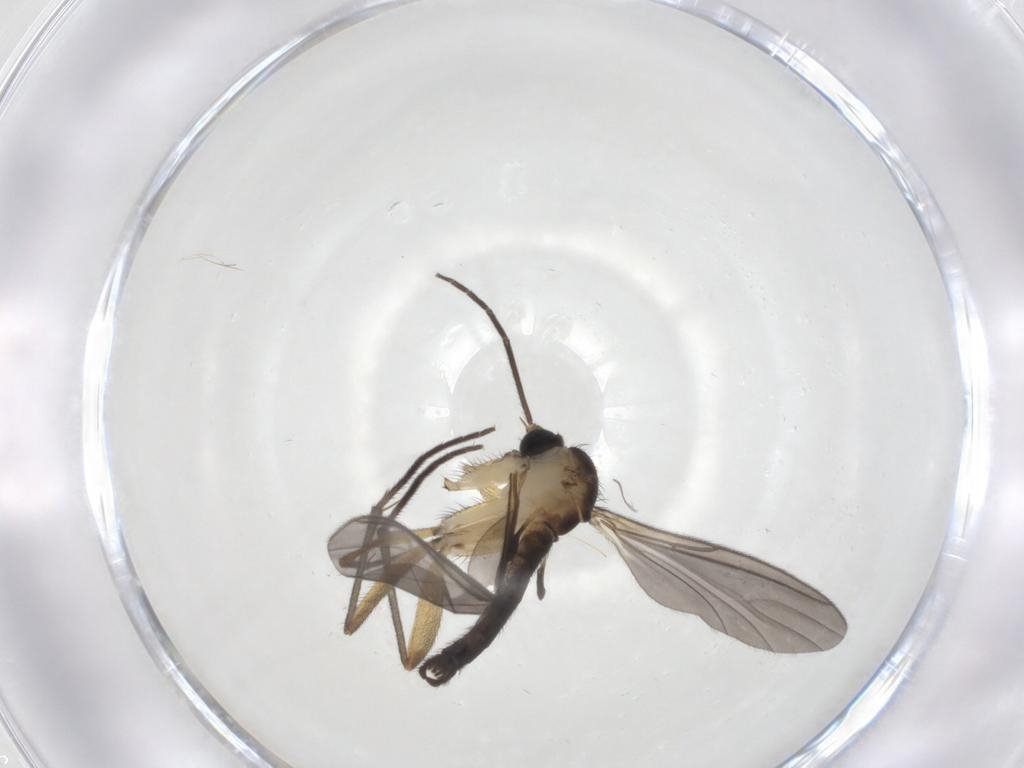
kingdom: Animalia
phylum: Arthropoda
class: Insecta
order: Diptera
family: Sciaridae
